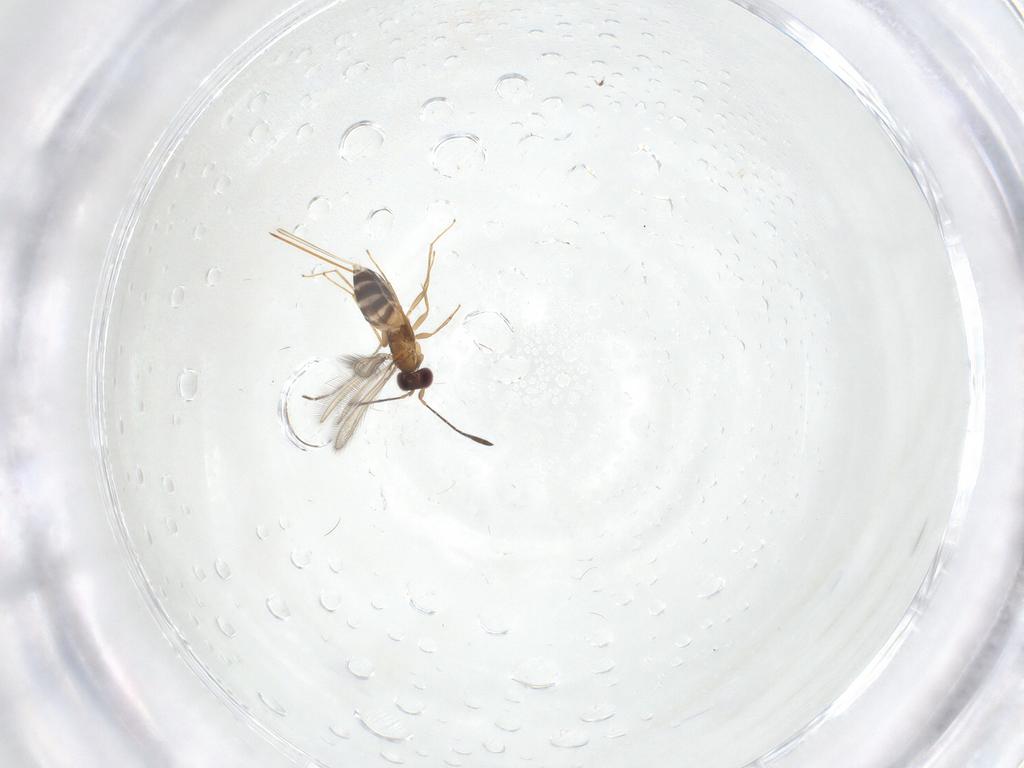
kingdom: Animalia
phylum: Arthropoda
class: Insecta
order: Hymenoptera
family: Mymaridae
